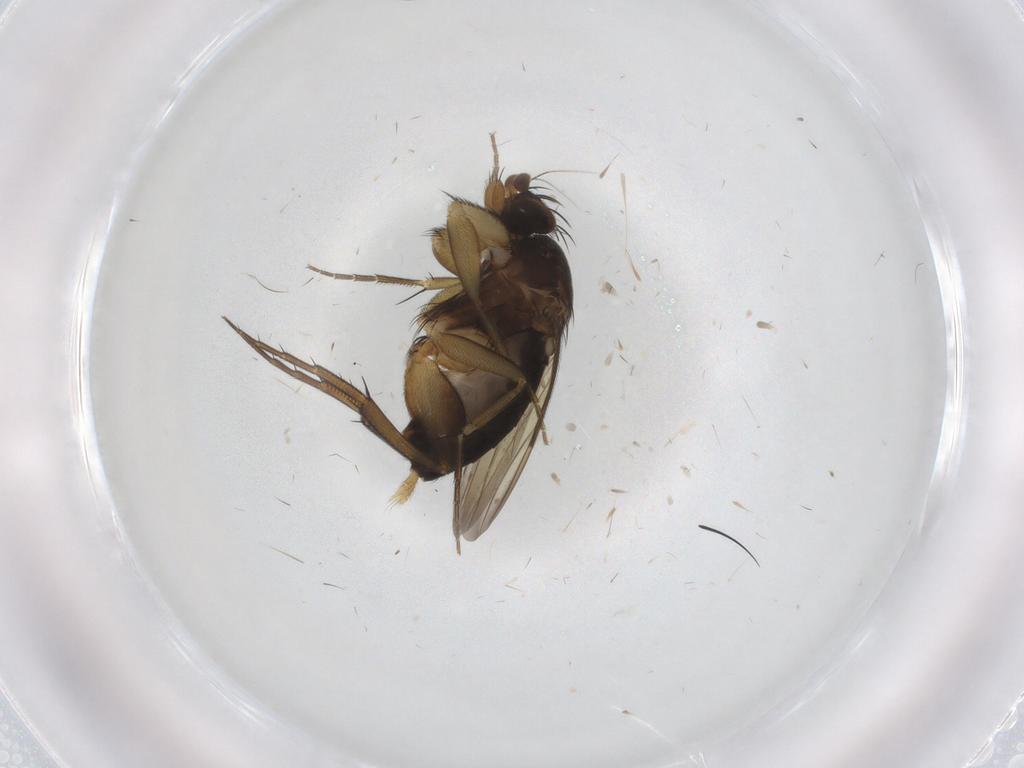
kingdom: Animalia
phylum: Arthropoda
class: Insecta
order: Diptera
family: Phoridae
